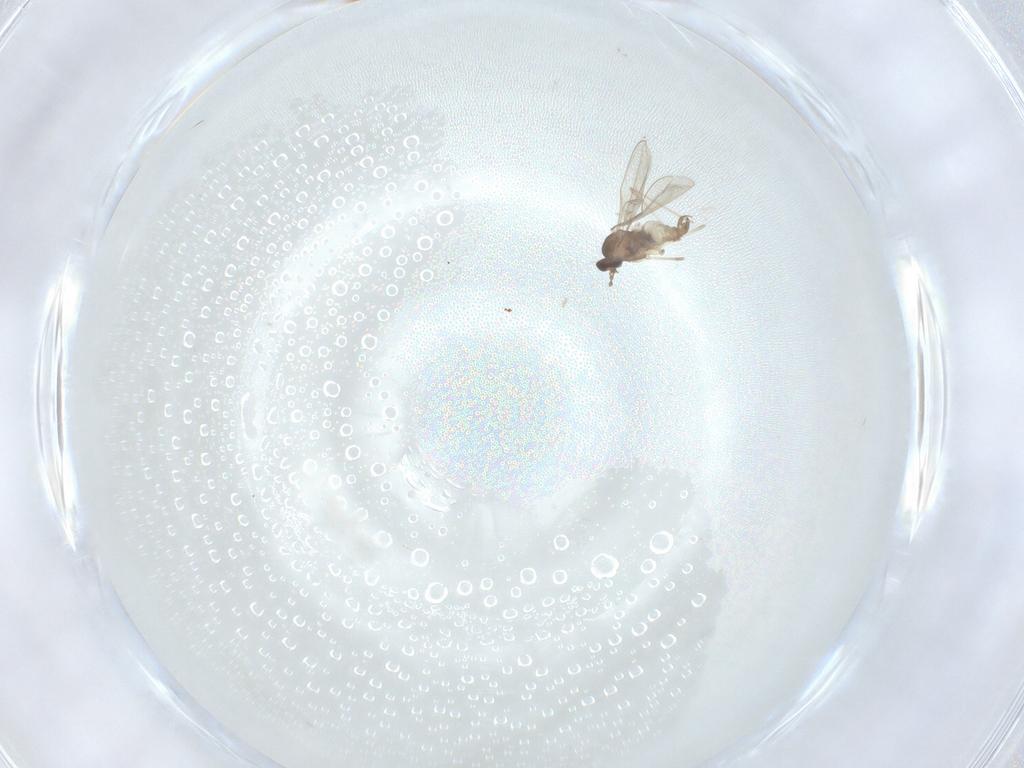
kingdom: Animalia
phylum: Arthropoda
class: Insecta
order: Diptera
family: Cecidomyiidae
